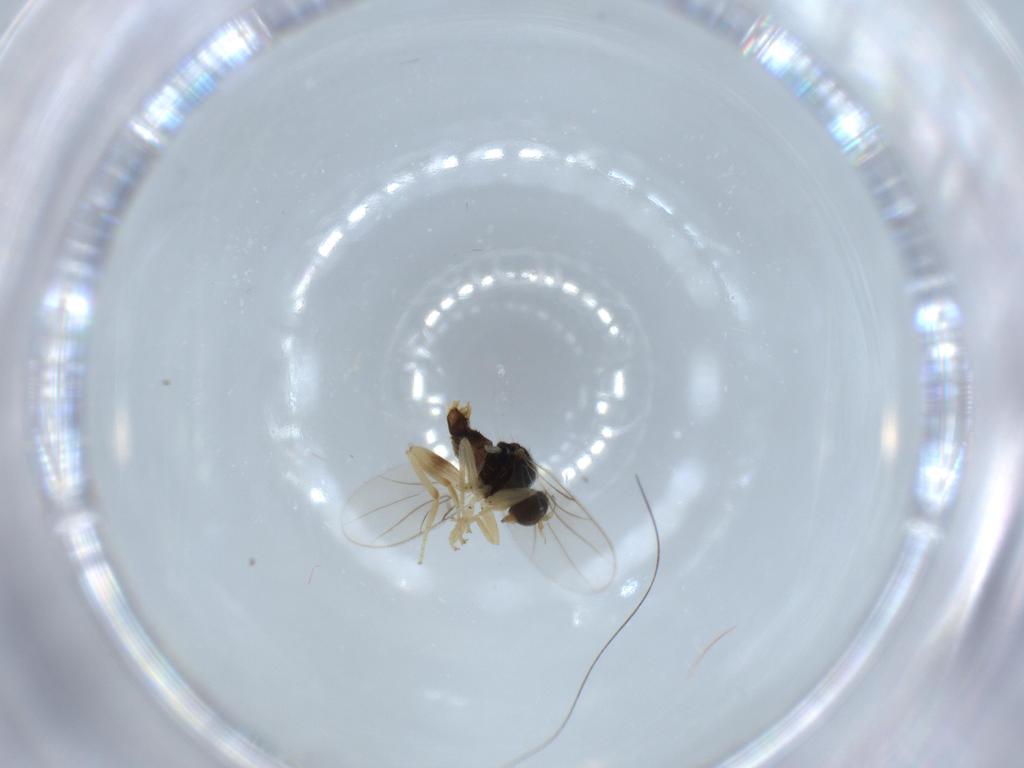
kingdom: Animalia
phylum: Arthropoda
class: Insecta
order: Diptera
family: Hybotidae
